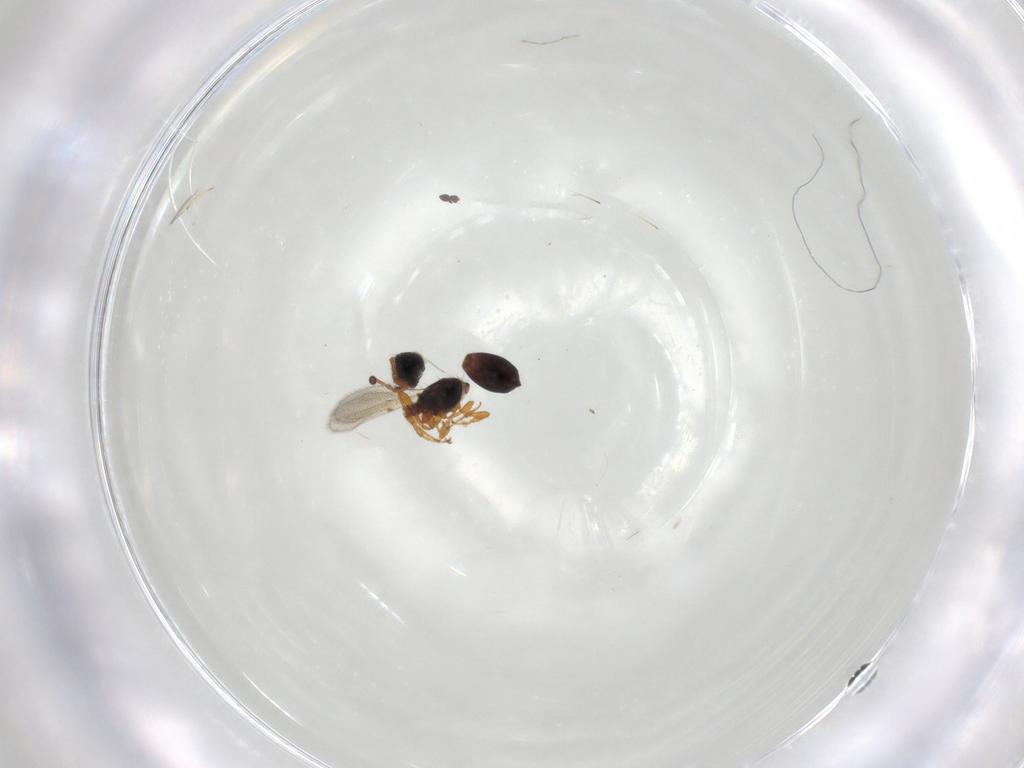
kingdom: Animalia
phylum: Arthropoda
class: Insecta
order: Hymenoptera
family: Diapriidae
